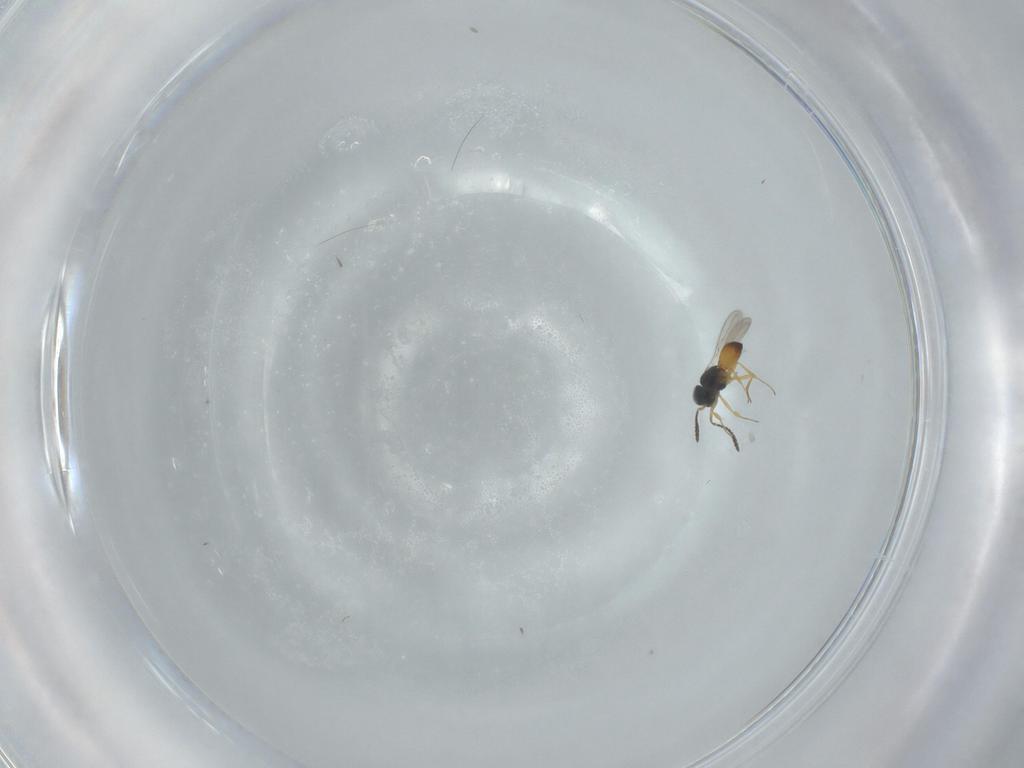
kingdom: Animalia
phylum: Arthropoda
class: Insecta
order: Hymenoptera
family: Scelionidae
